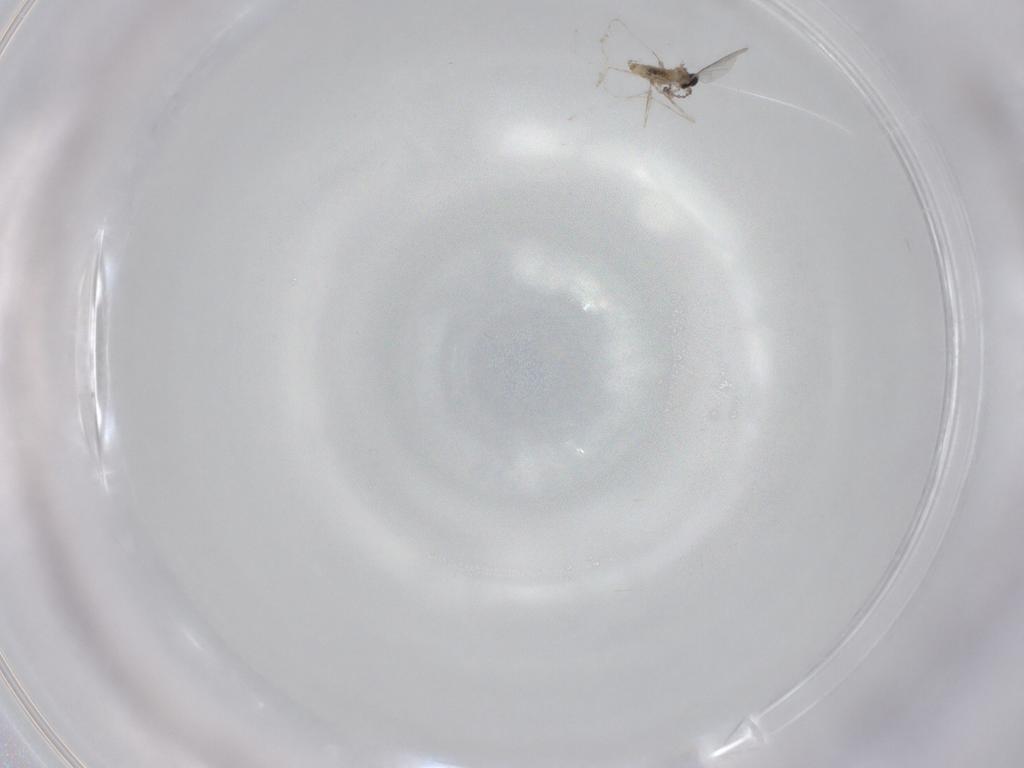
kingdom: Animalia
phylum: Arthropoda
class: Insecta
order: Diptera
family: Cecidomyiidae
